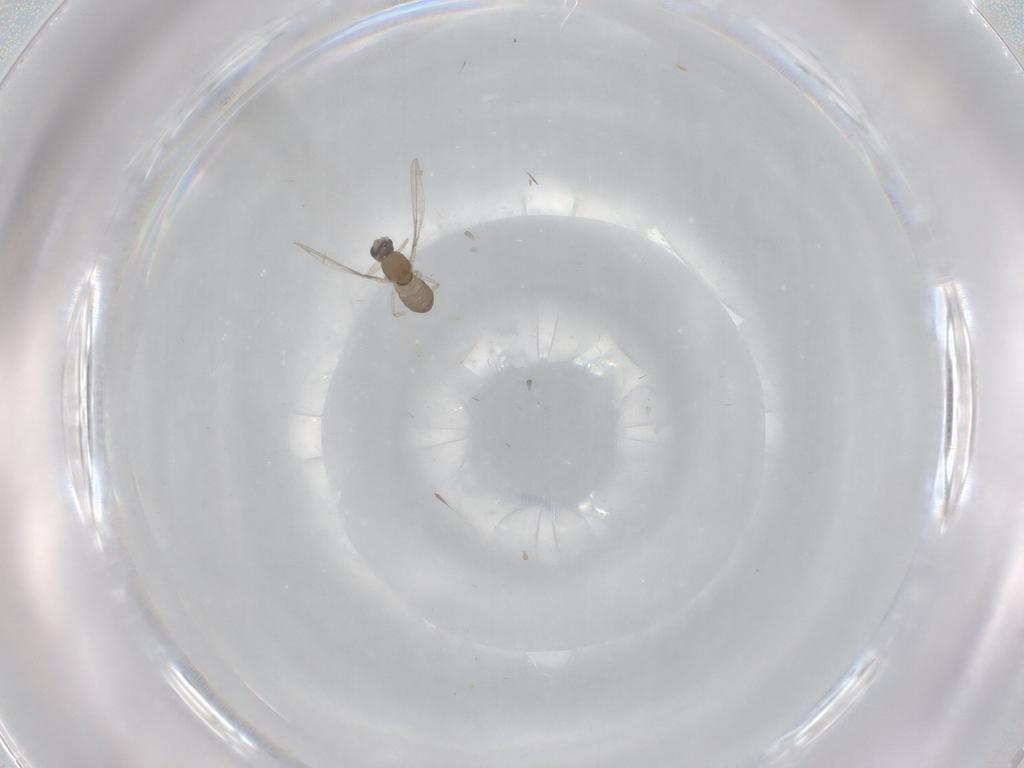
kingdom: Animalia
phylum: Arthropoda
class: Insecta
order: Diptera
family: Cecidomyiidae
